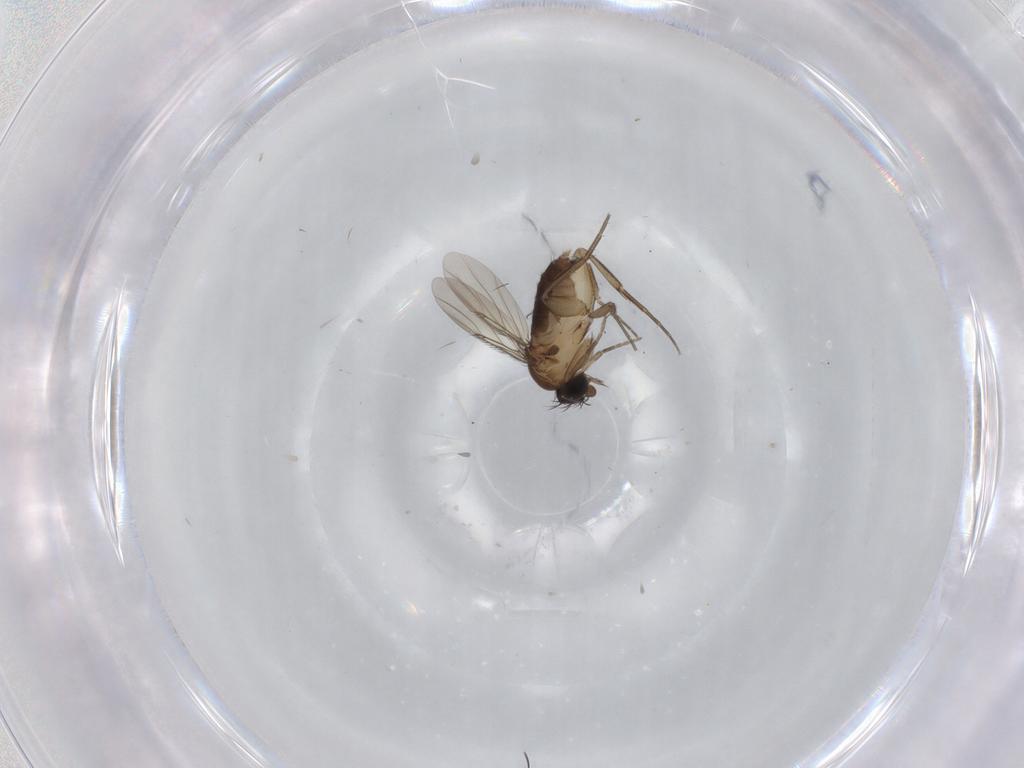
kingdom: Animalia
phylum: Arthropoda
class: Insecta
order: Diptera
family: Phoridae
